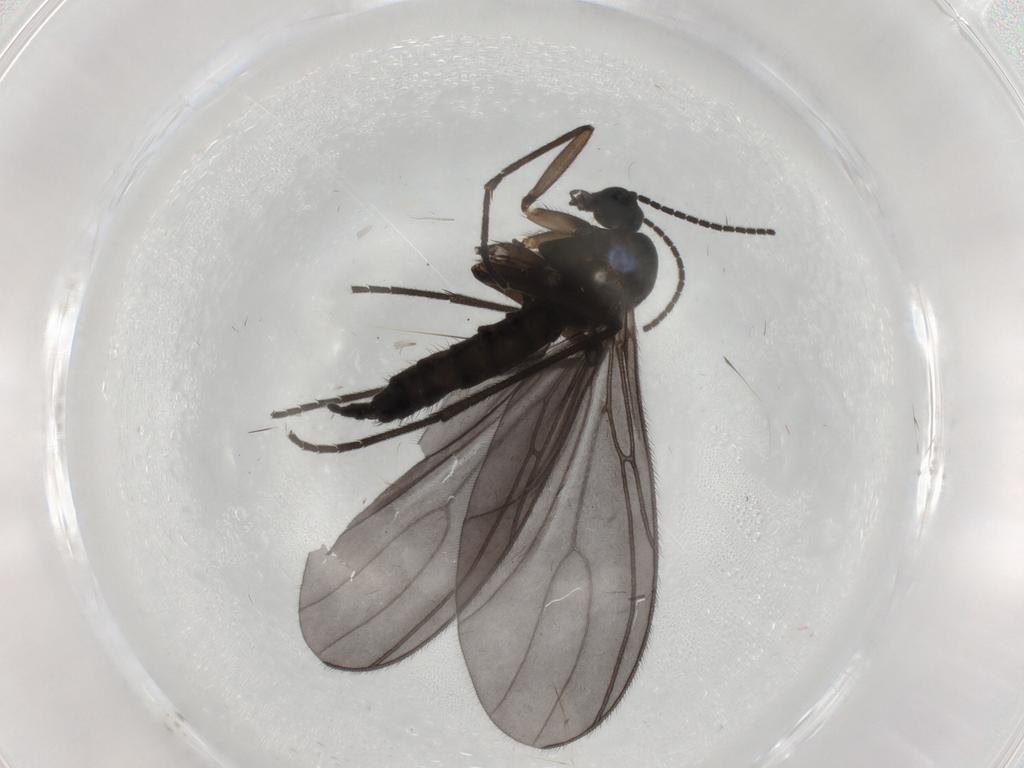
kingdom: Animalia
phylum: Arthropoda
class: Insecta
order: Diptera
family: Sciaridae
